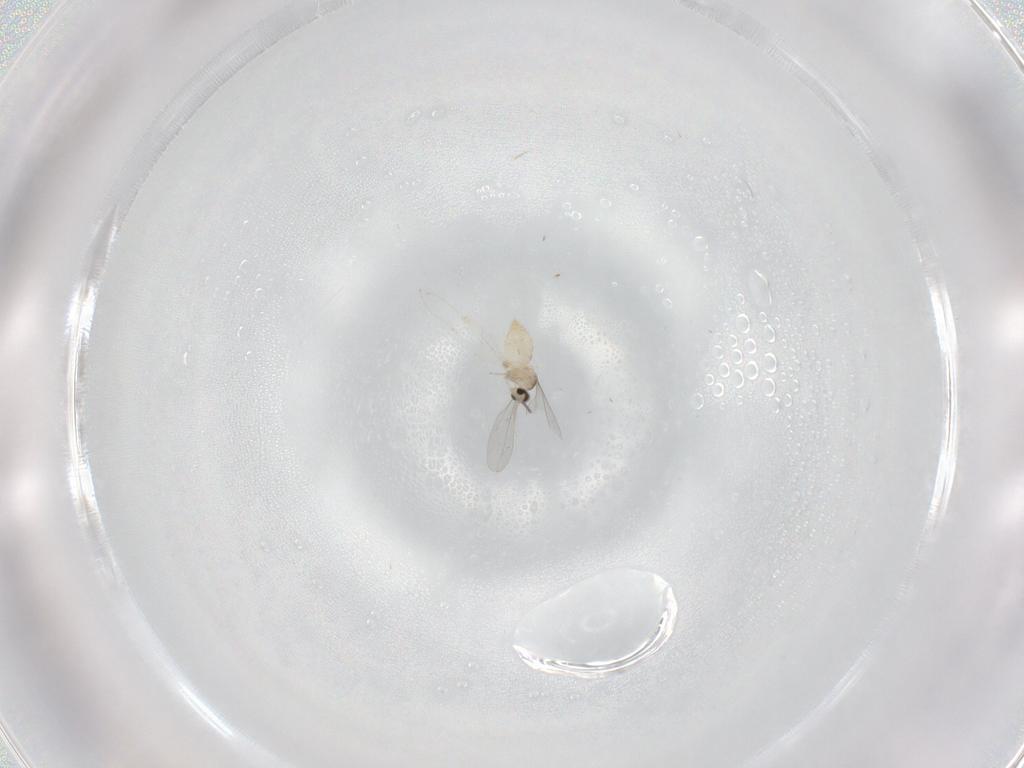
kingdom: Animalia
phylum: Arthropoda
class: Insecta
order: Diptera
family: Cecidomyiidae
